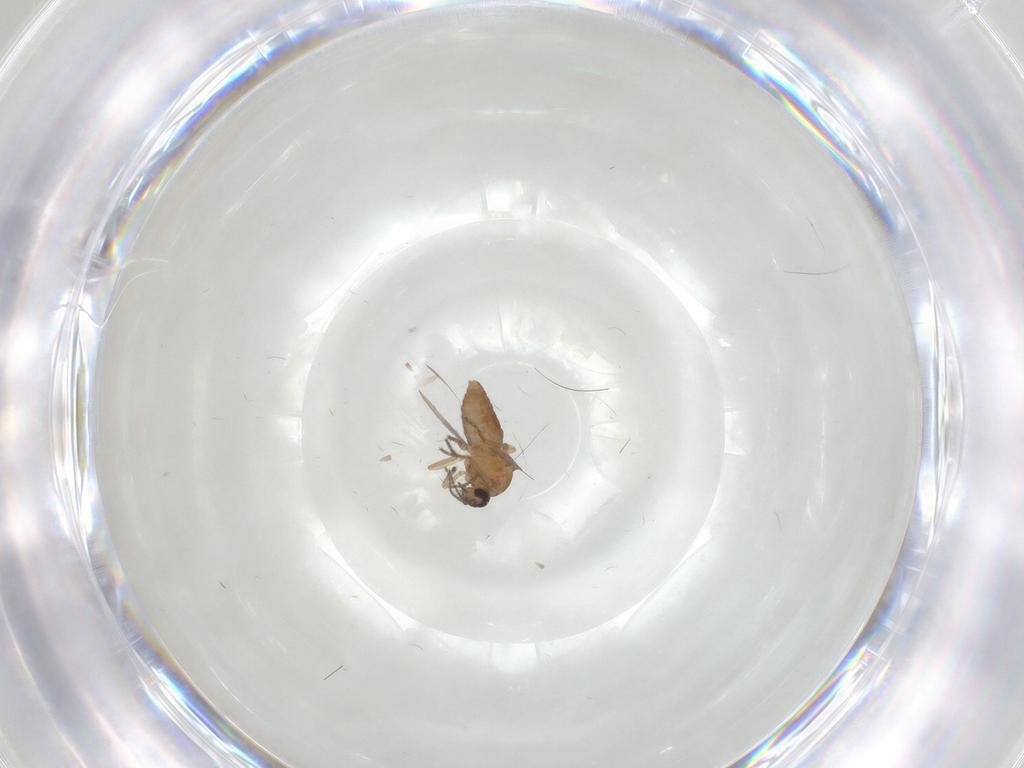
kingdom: Animalia
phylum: Arthropoda
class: Insecta
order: Diptera
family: Ceratopogonidae
